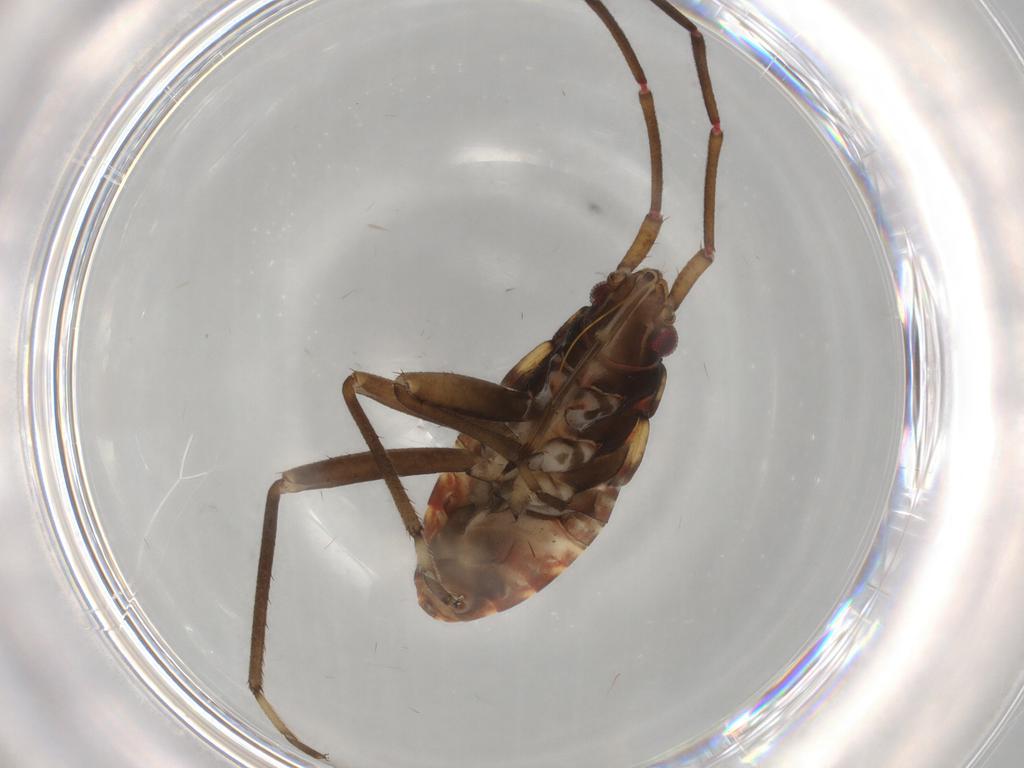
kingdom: Animalia
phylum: Arthropoda
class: Insecta
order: Hemiptera
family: Rhyparochromidae
